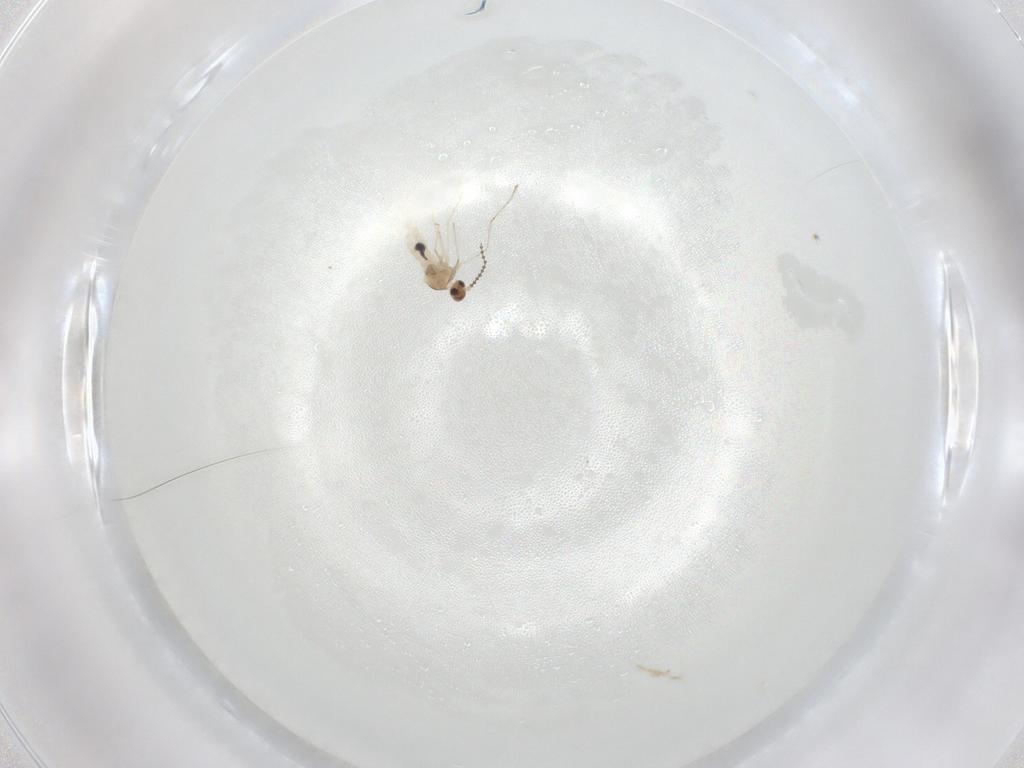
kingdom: Animalia
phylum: Arthropoda
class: Insecta
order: Diptera
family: Cecidomyiidae
